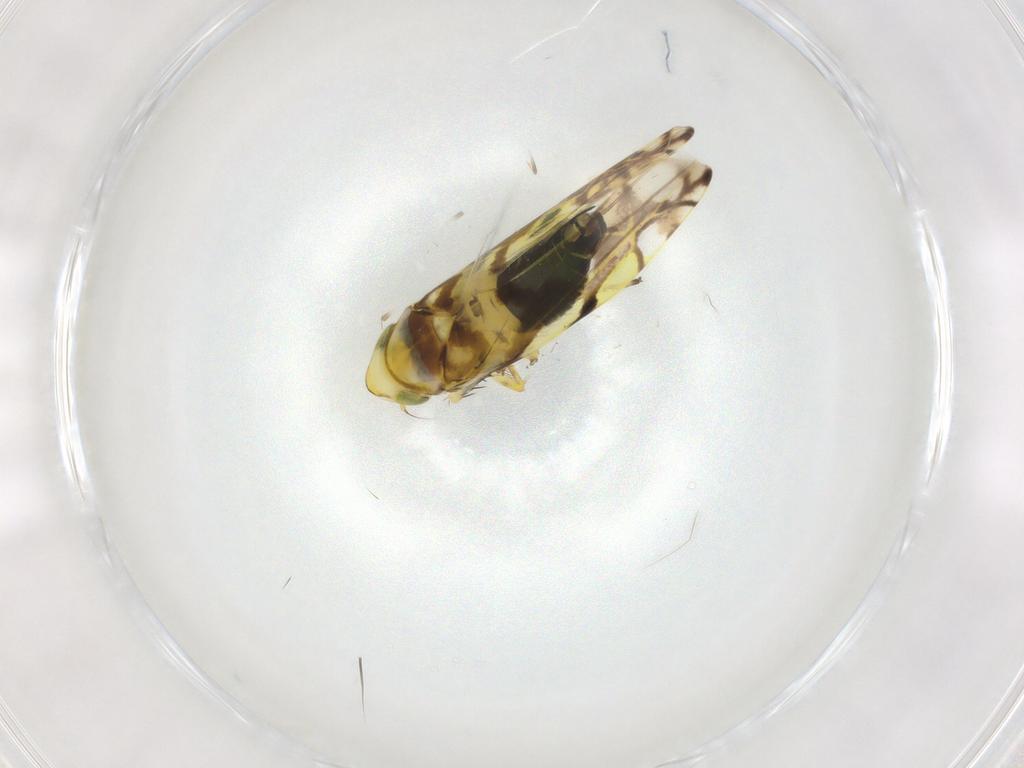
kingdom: Animalia
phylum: Arthropoda
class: Insecta
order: Hemiptera
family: Cicadellidae
